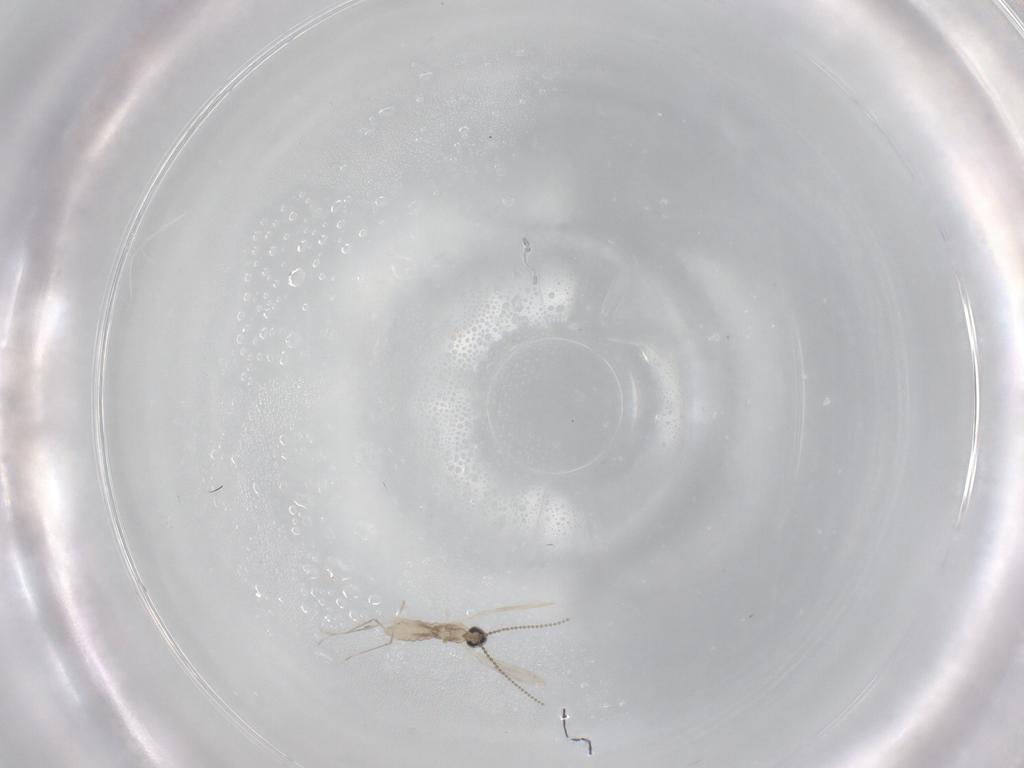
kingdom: Animalia
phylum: Arthropoda
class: Insecta
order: Diptera
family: Cecidomyiidae
